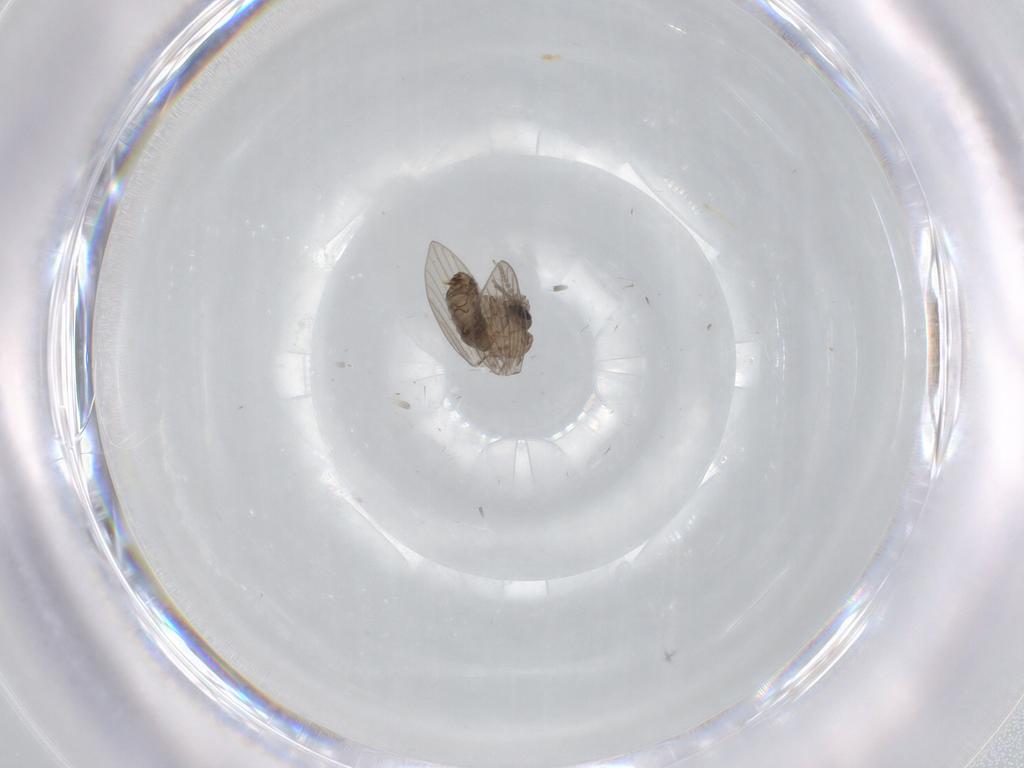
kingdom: Animalia
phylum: Arthropoda
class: Insecta
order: Diptera
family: Psychodidae
